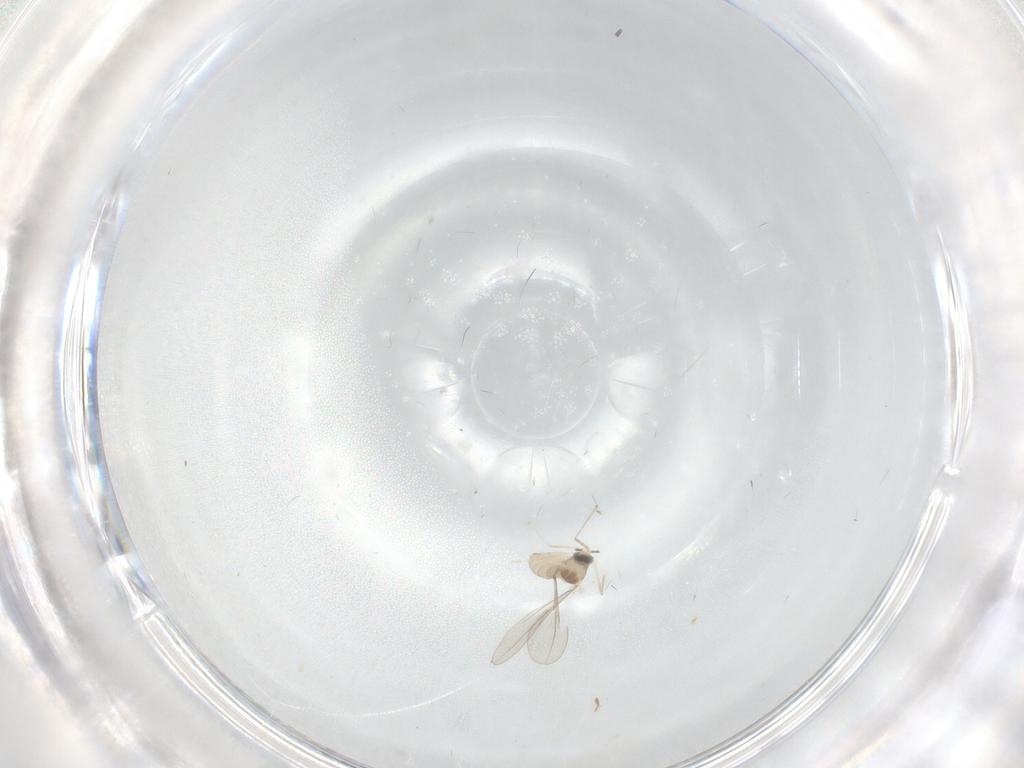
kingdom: Animalia
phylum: Arthropoda
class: Insecta
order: Diptera
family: Cecidomyiidae
